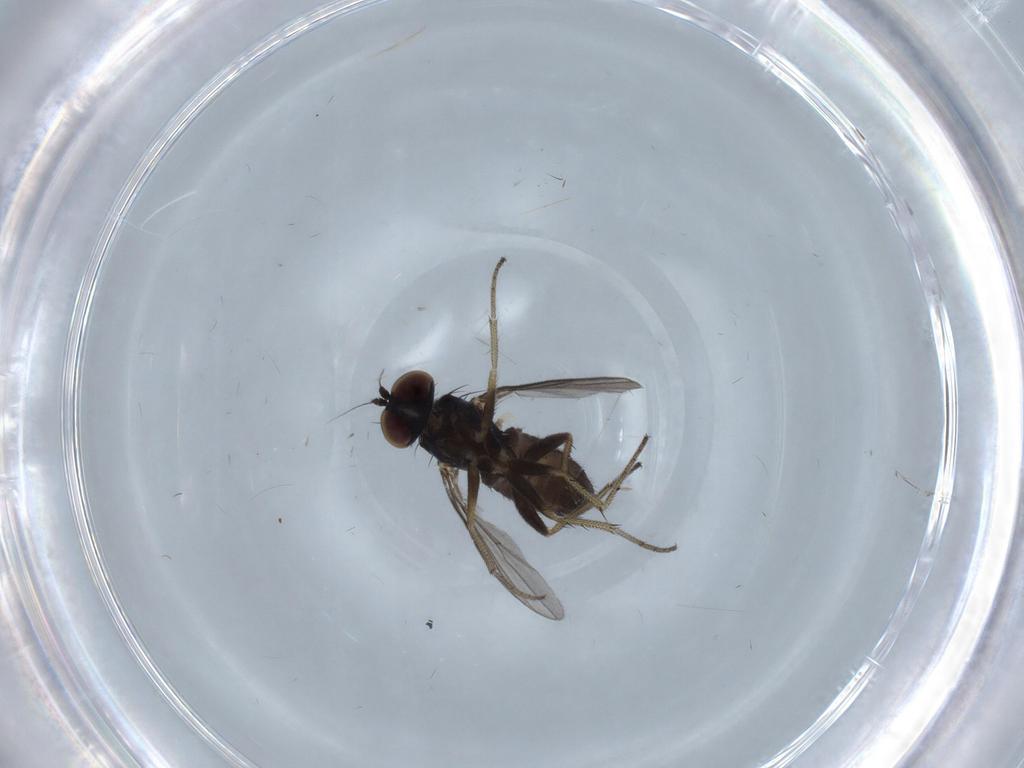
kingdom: Animalia
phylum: Arthropoda
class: Insecta
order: Diptera
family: Dolichopodidae
